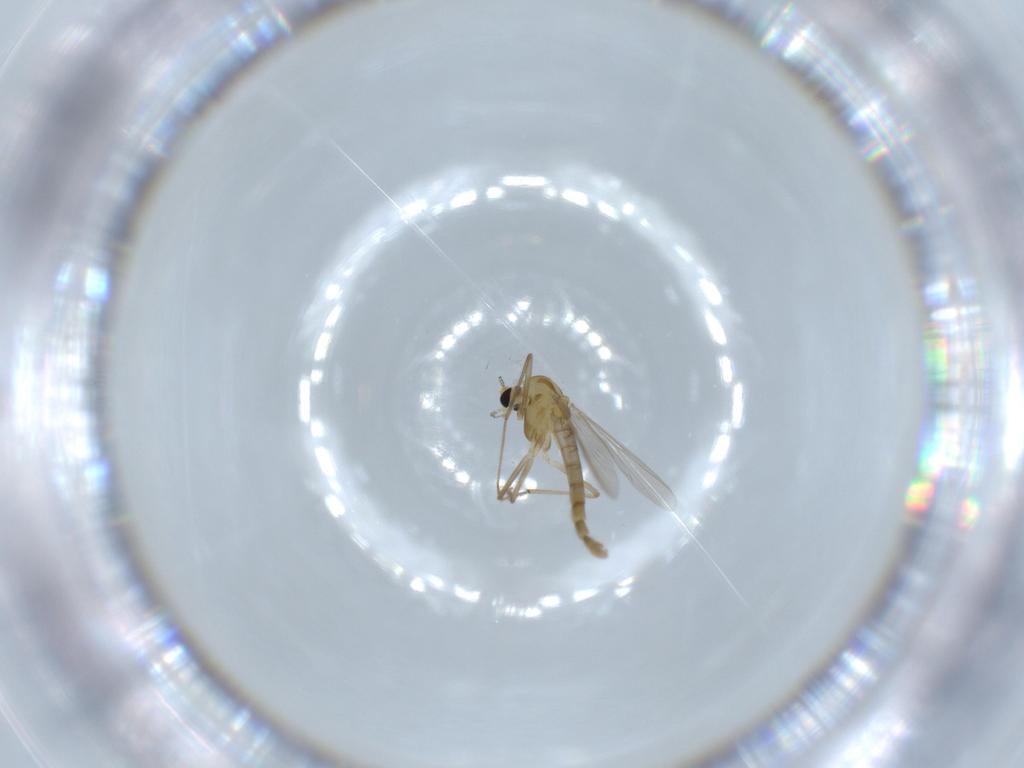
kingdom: Animalia
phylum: Arthropoda
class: Insecta
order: Diptera
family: Chironomidae
